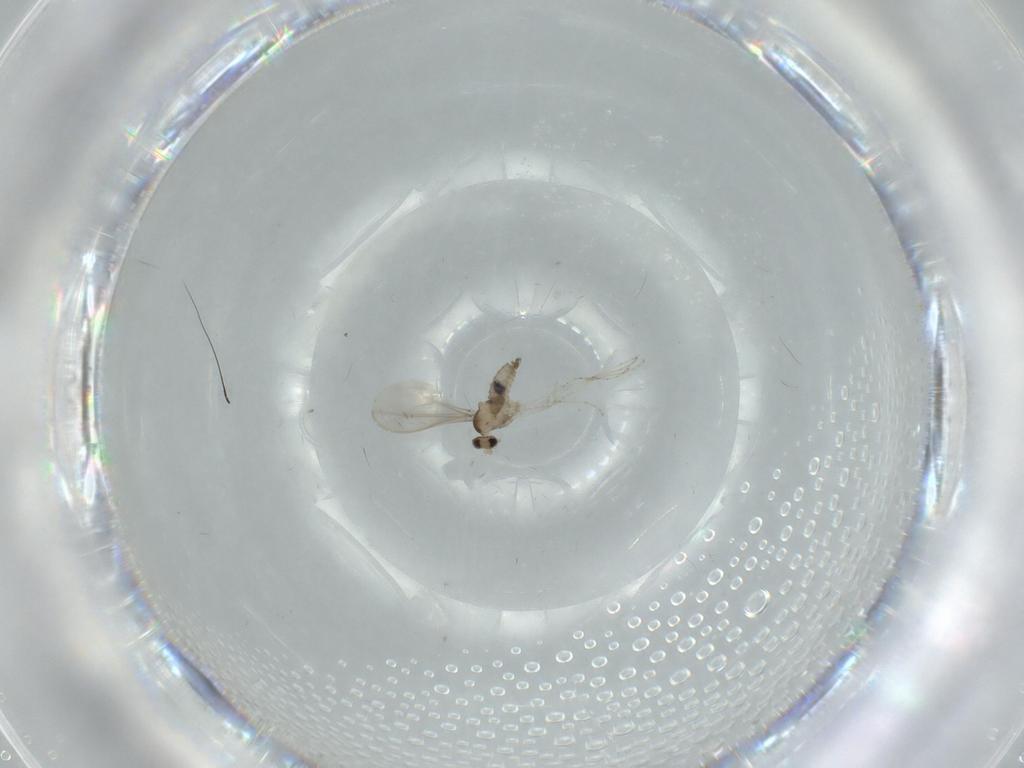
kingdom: Animalia
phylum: Arthropoda
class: Insecta
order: Diptera
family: Cecidomyiidae
